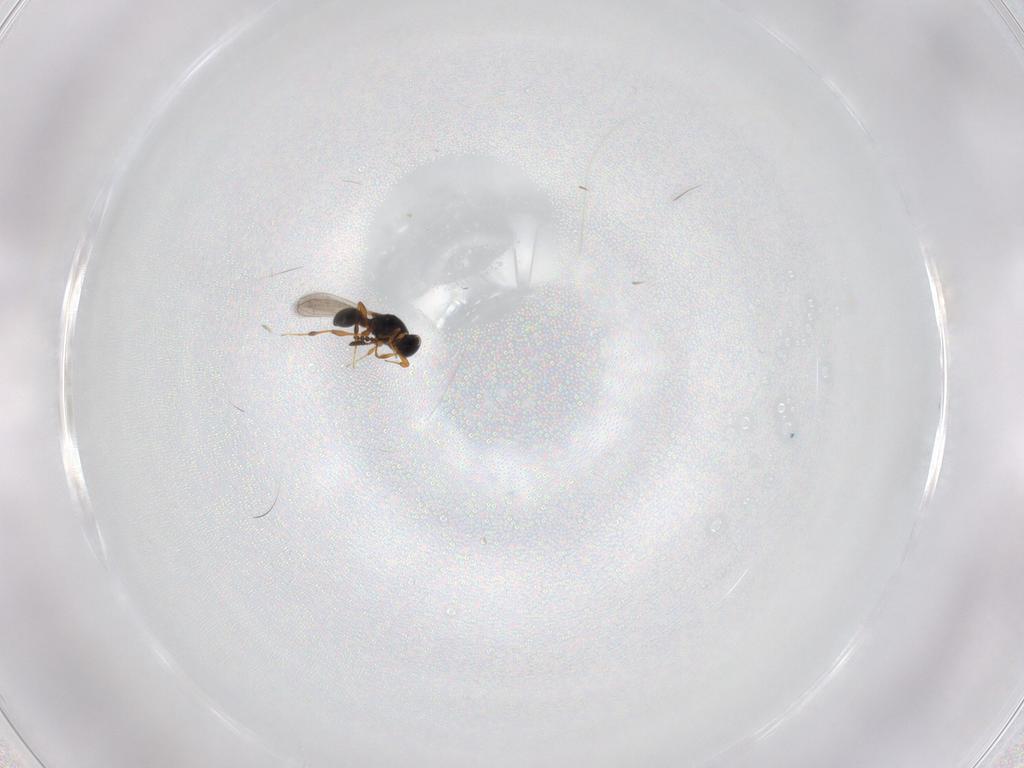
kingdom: Animalia
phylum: Arthropoda
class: Insecta
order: Hymenoptera
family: Platygastridae
